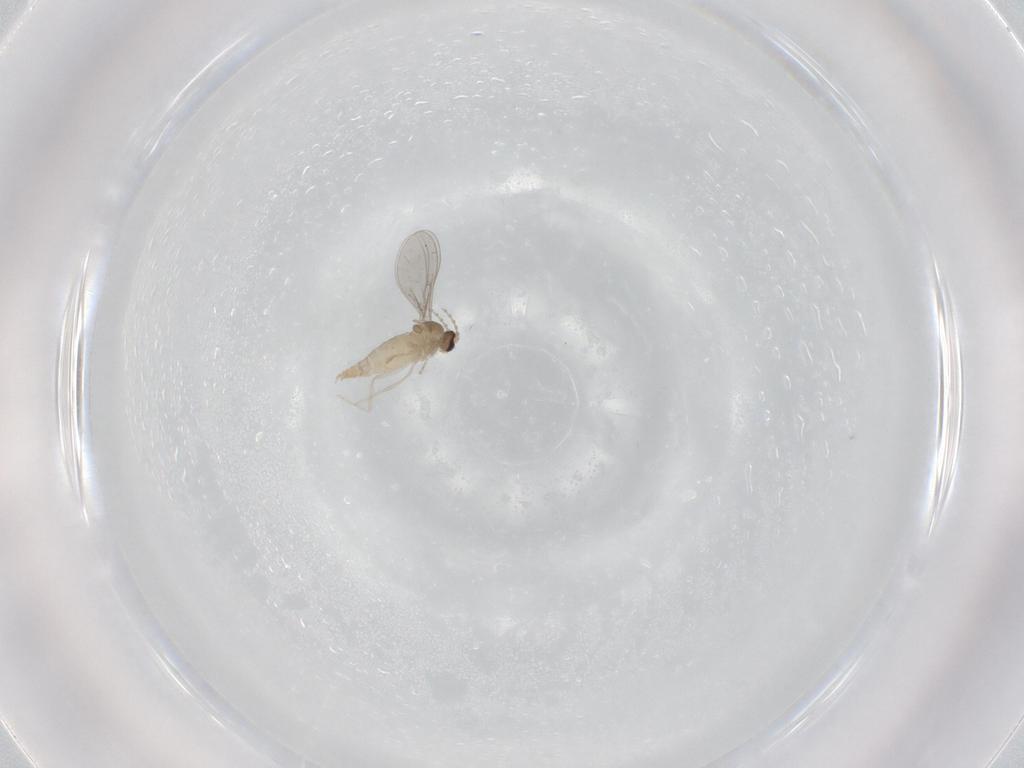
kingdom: Animalia
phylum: Arthropoda
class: Insecta
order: Diptera
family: Cecidomyiidae
